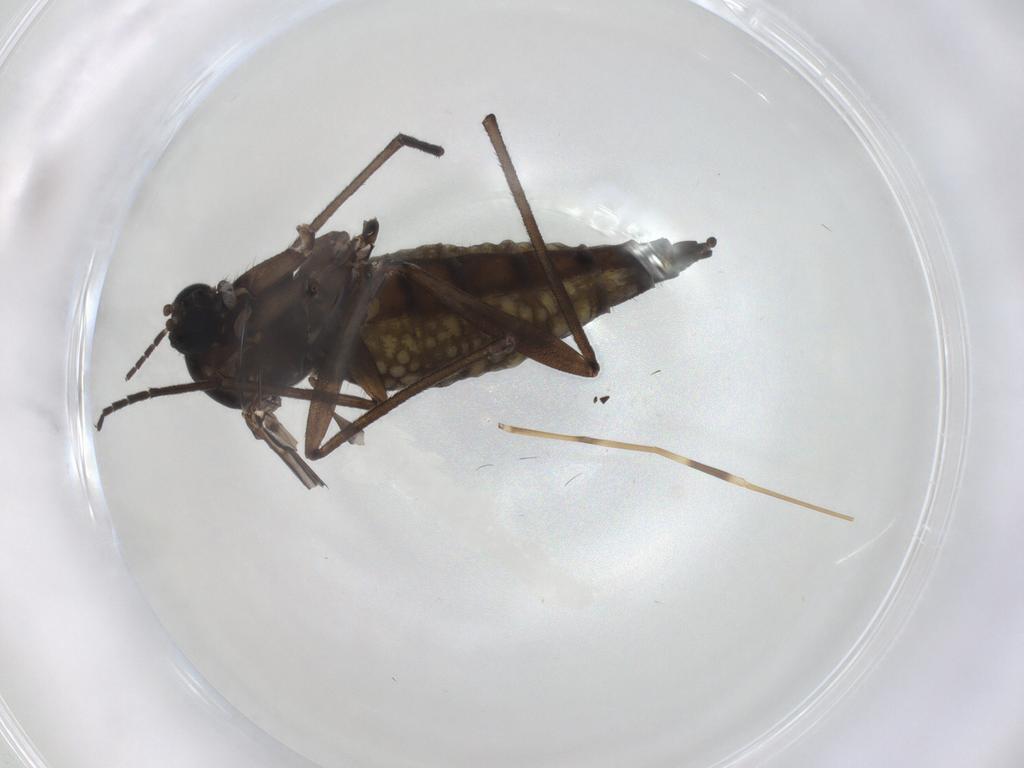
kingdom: Animalia
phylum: Arthropoda
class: Insecta
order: Diptera
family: Sciaridae
